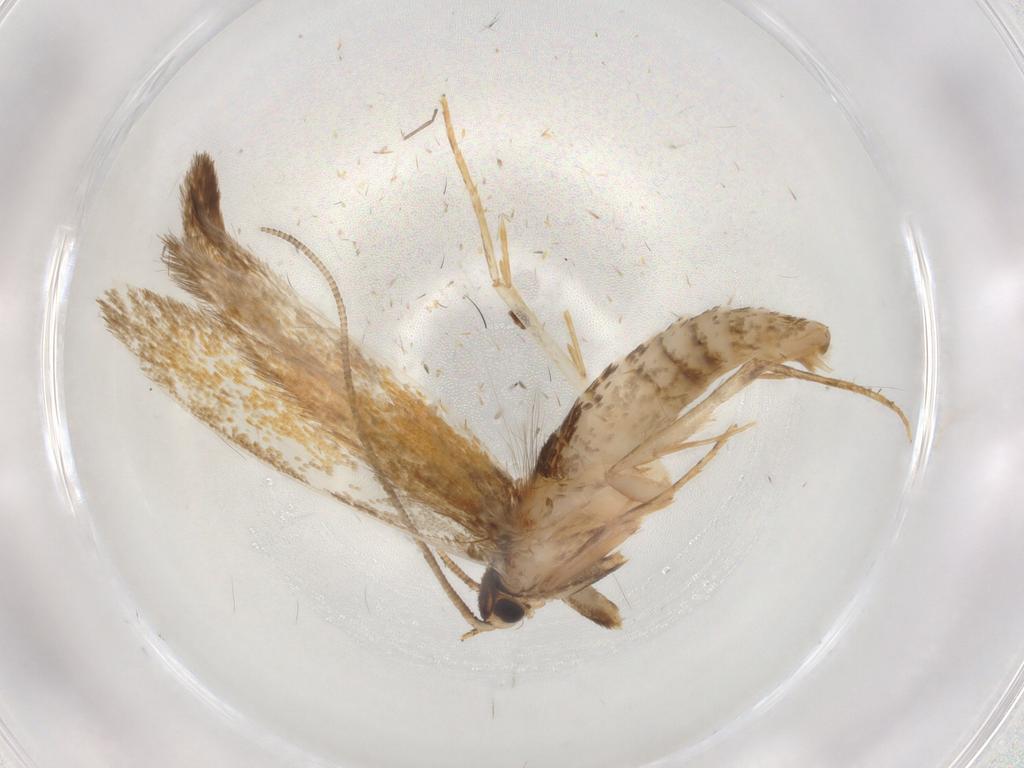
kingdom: Animalia
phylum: Arthropoda
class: Insecta
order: Lepidoptera
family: Tineidae
